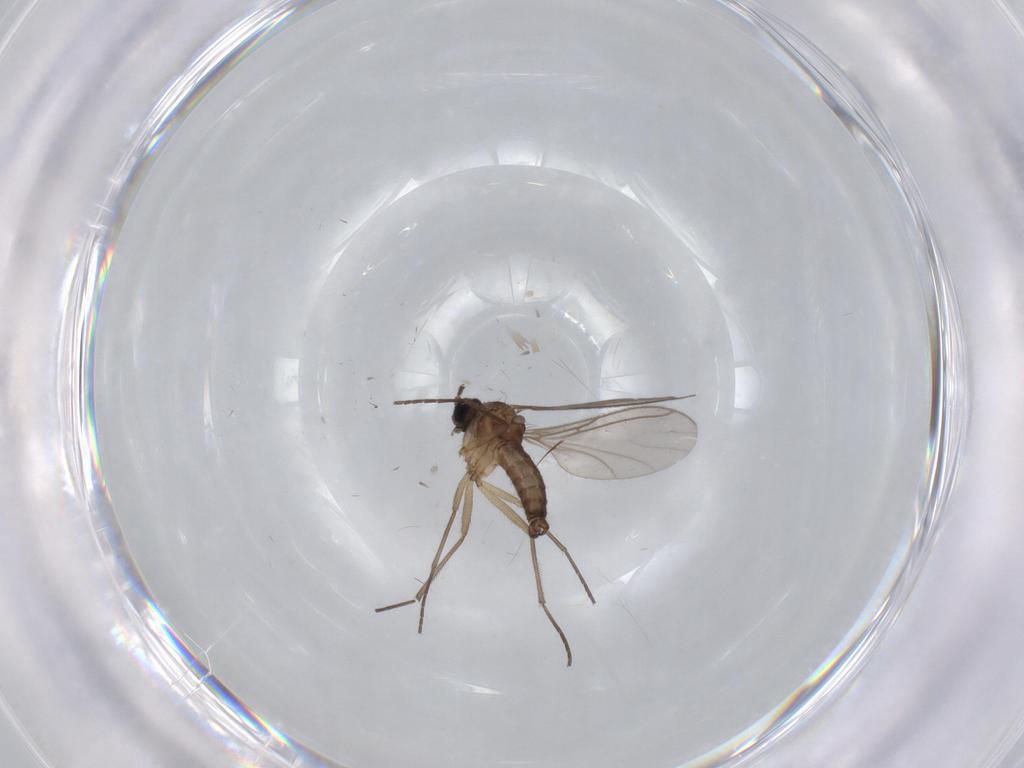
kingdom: Animalia
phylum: Arthropoda
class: Insecta
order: Diptera
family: Sciaridae
